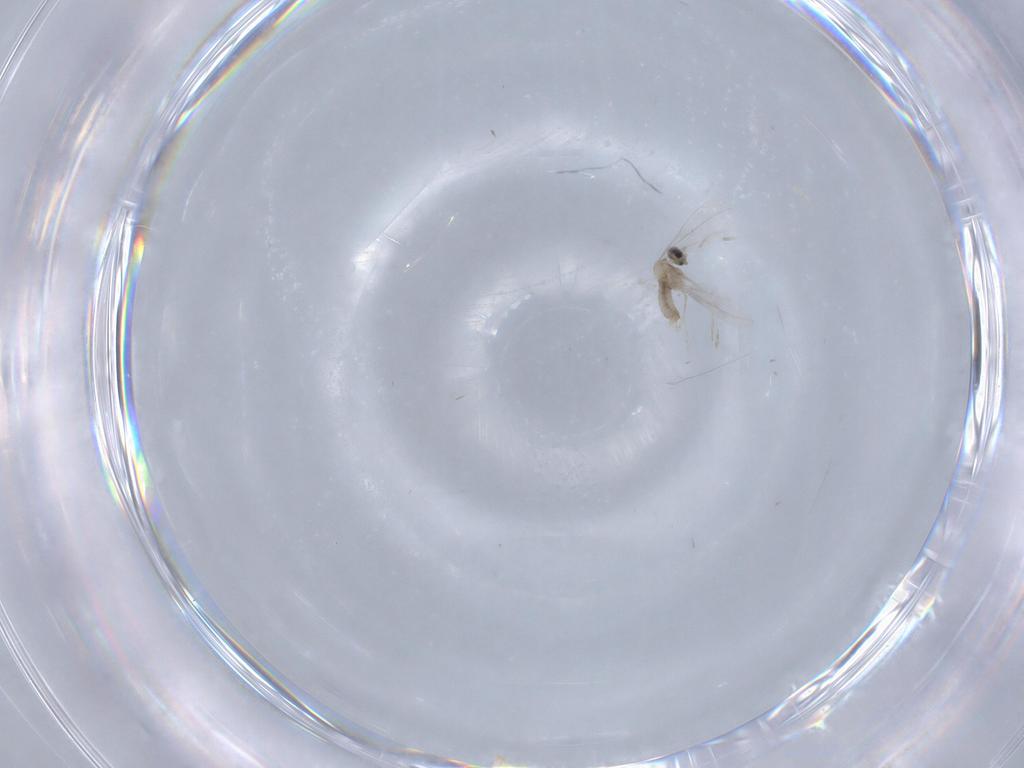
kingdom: Animalia
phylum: Arthropoda
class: Insecta
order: Diptera
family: Cecidomyiidae
